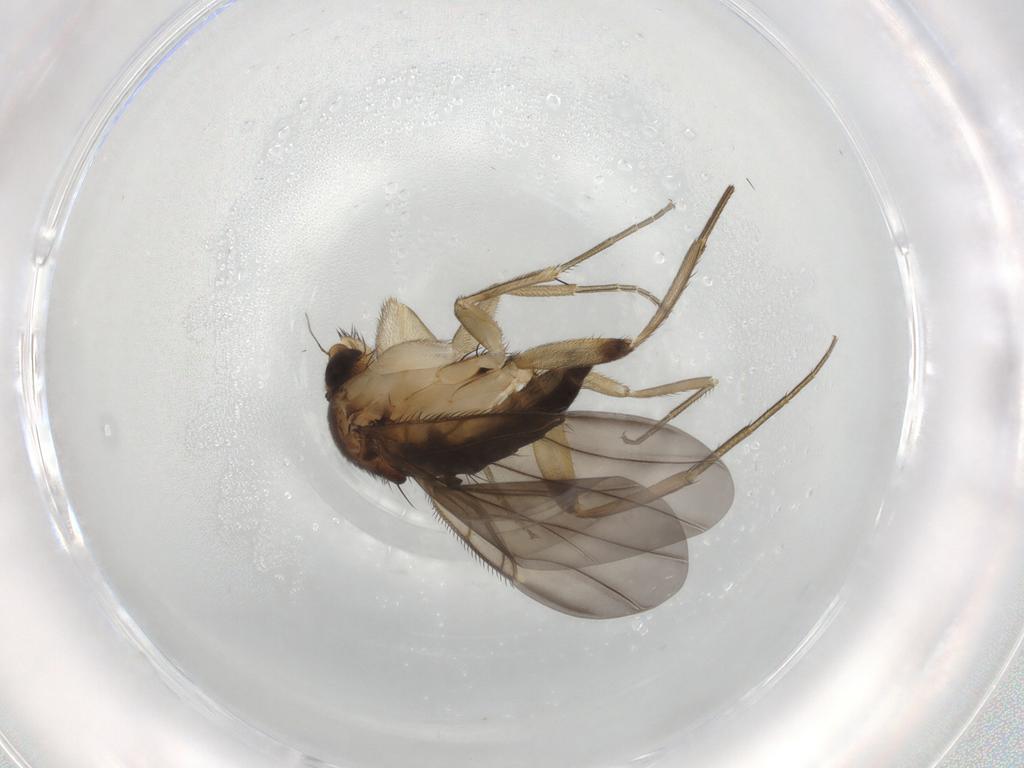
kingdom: Animalia
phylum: Arthropoda
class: Insecta
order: Diptera
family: Phoridae
